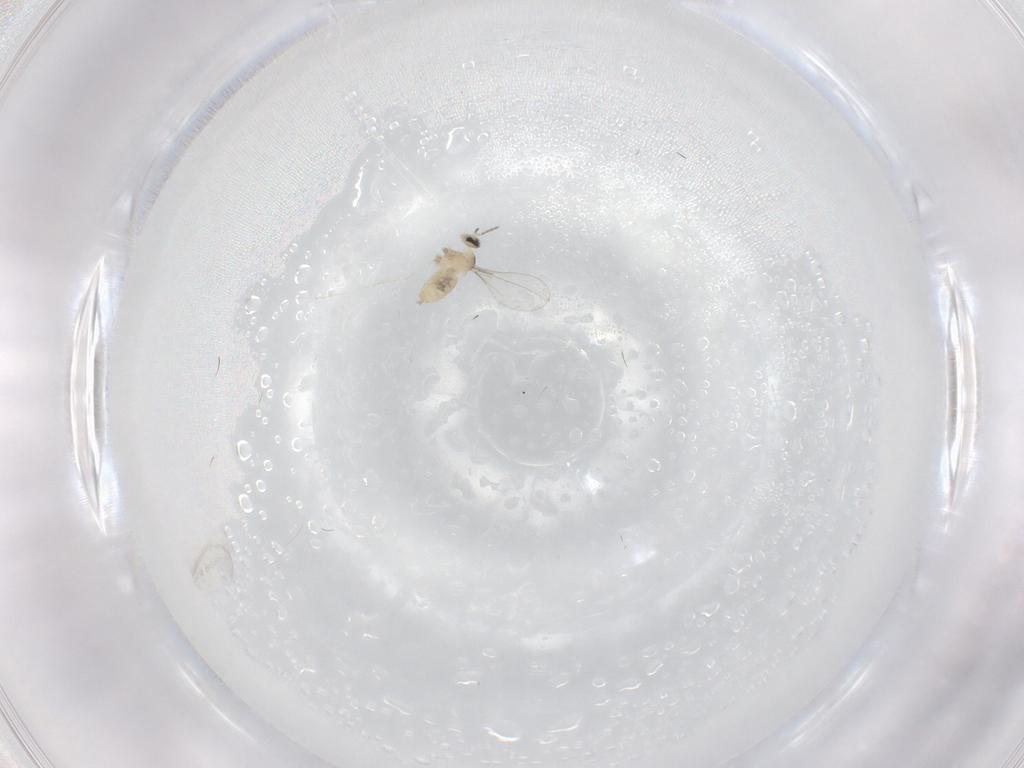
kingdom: Animalia
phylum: Arthropoda
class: Insecta
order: Diptera
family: Cecidomyiidae
